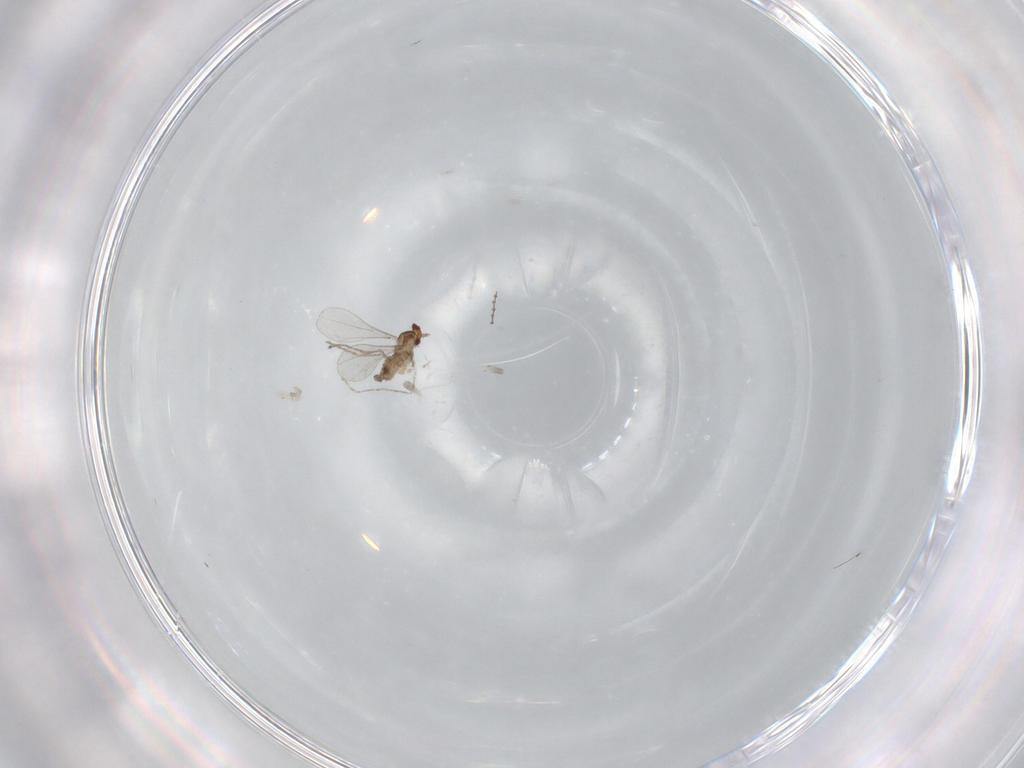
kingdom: Animalia
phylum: Arthropoda
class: Insecta
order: Diptera
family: Cecidomyiidae
